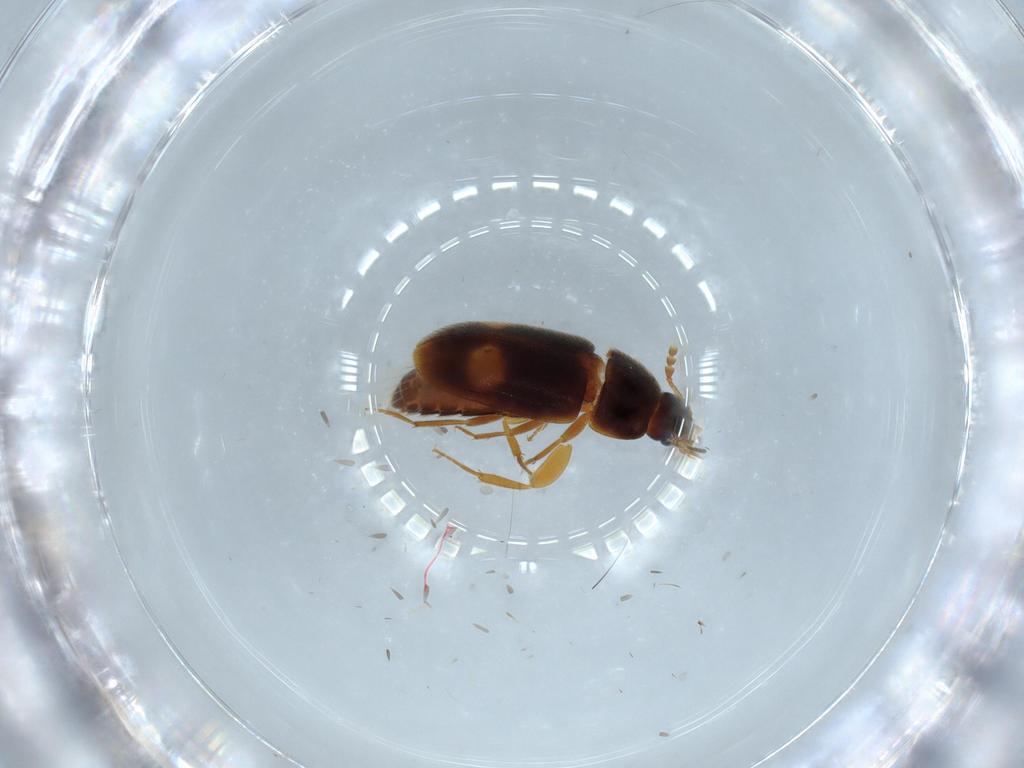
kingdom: Animalia
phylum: Arthropoda
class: Insecta
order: Coleoptera
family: Mycetophagidae
